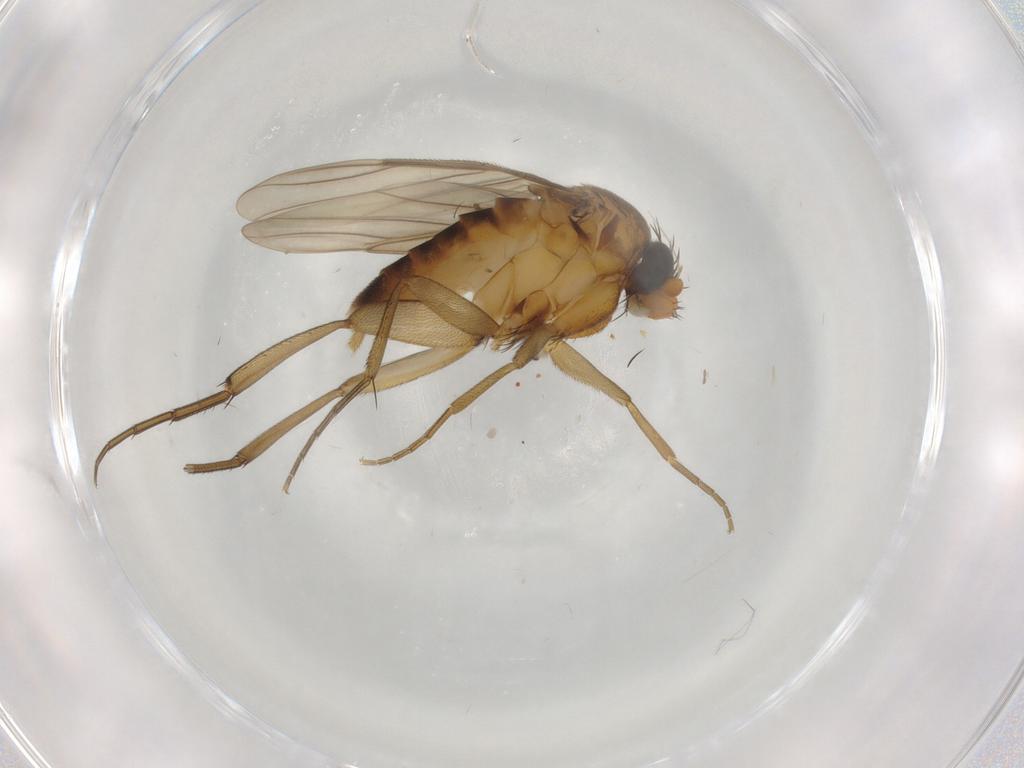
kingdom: Animalia
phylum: Arthropoda
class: Insecta
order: Diptera
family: Phoridae
